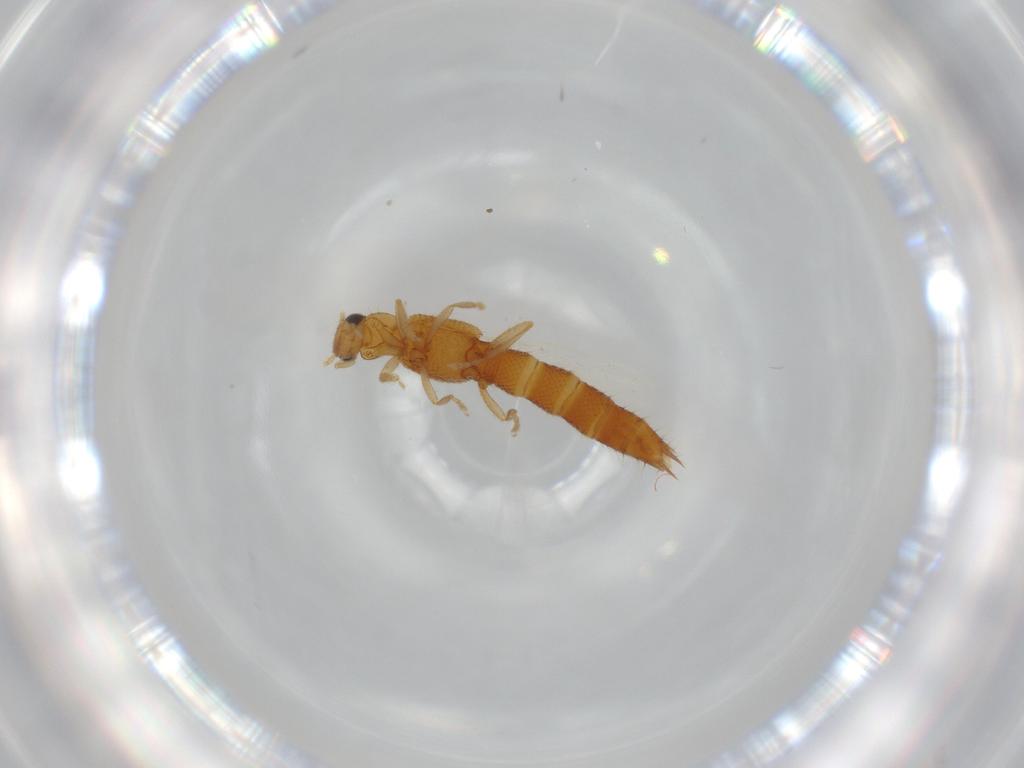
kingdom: Animalia
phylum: Arthropoda
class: Insecta
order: Coleoptera
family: Staphylinidae
